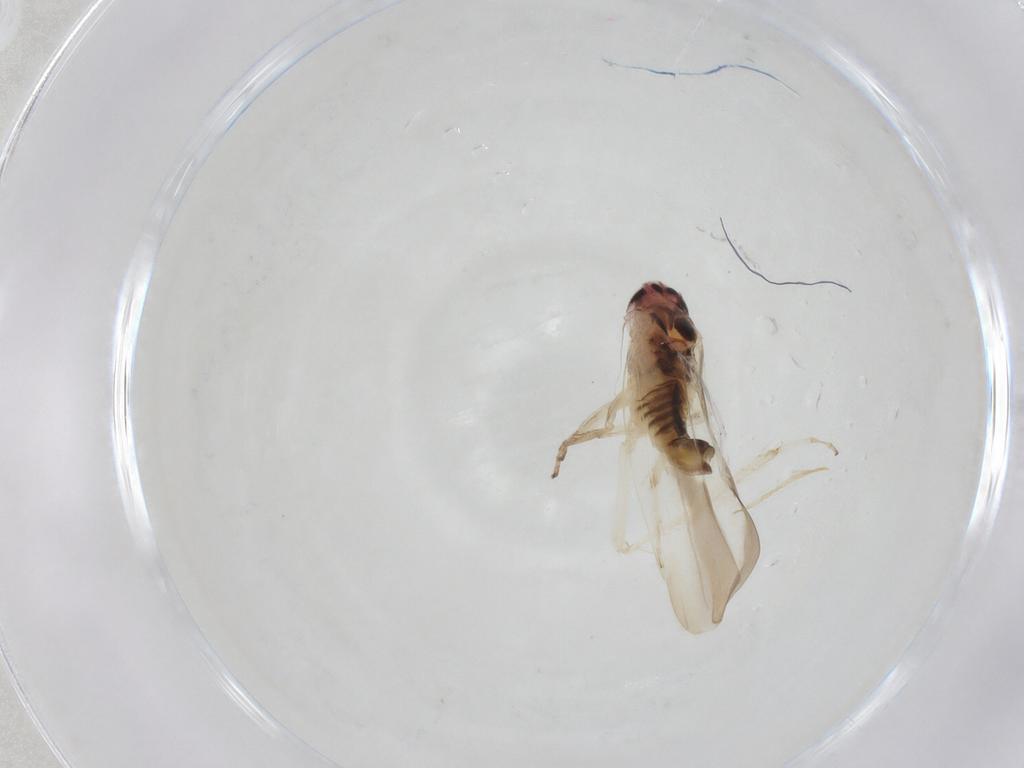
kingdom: Animalia
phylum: Arthropoda
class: Insecta
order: Hemiptera
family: Cicadellidae
